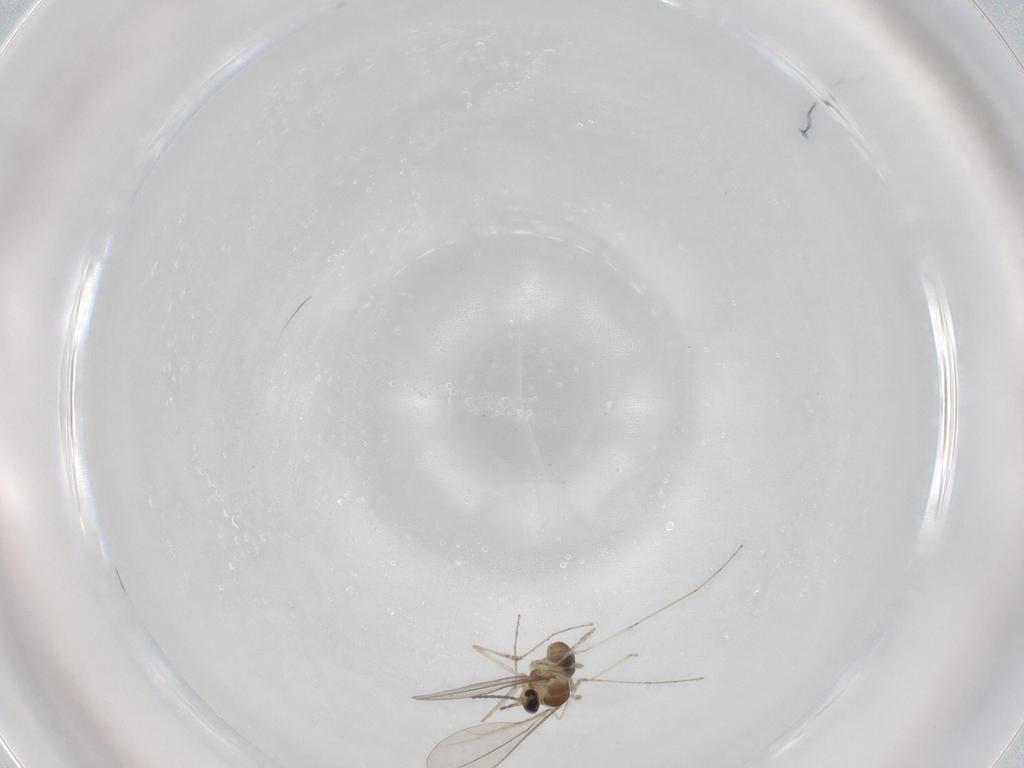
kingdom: Animalia
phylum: Arthropoda
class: Insecta
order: Diptera
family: Cecidomyiidae
